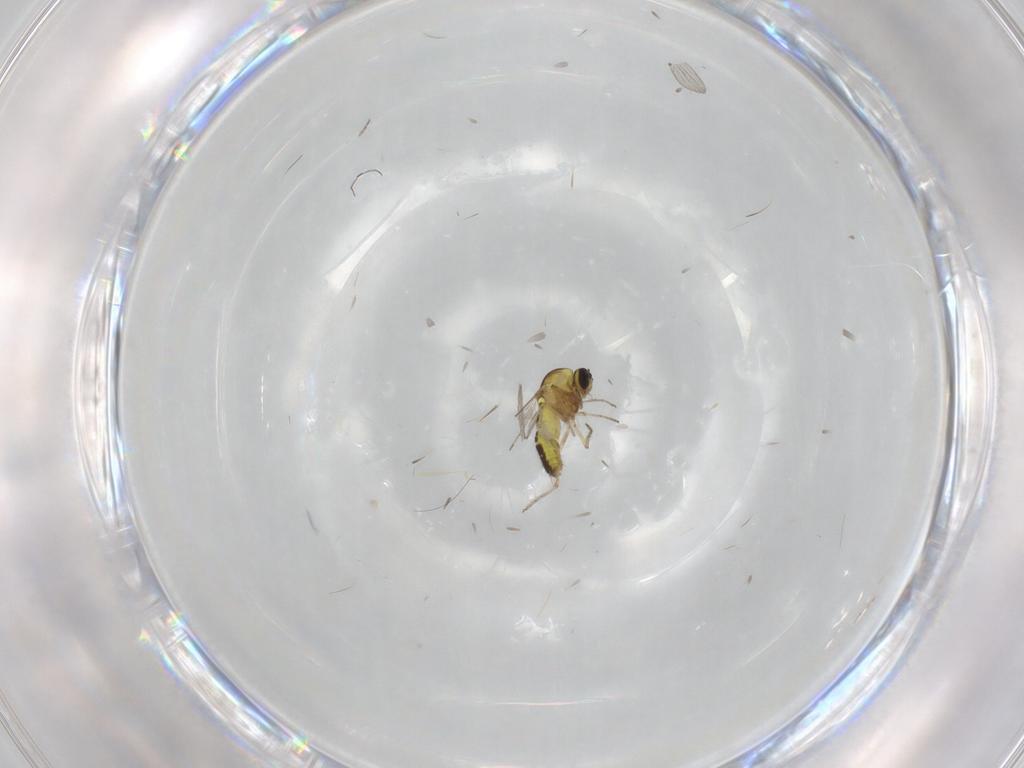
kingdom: Animalia
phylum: Arthropoda
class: Insecta
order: Diptera
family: Ceratopogonidae
